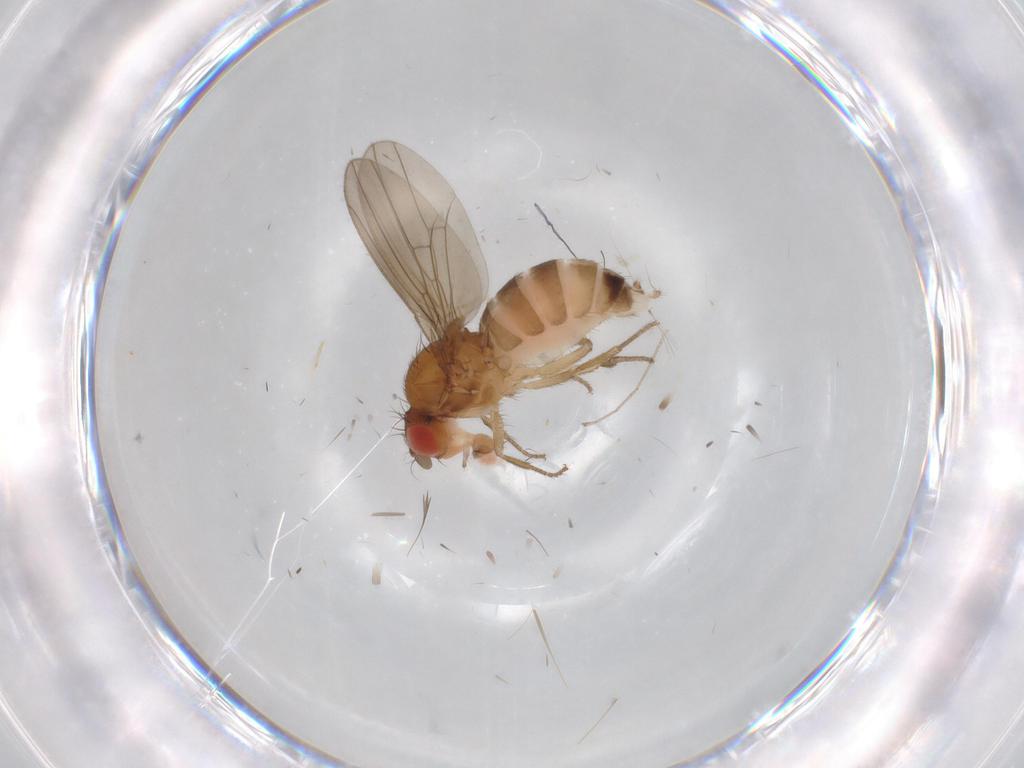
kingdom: Animalia
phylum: Arthropoda
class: Insecta
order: Diptera
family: Drosophilidae
